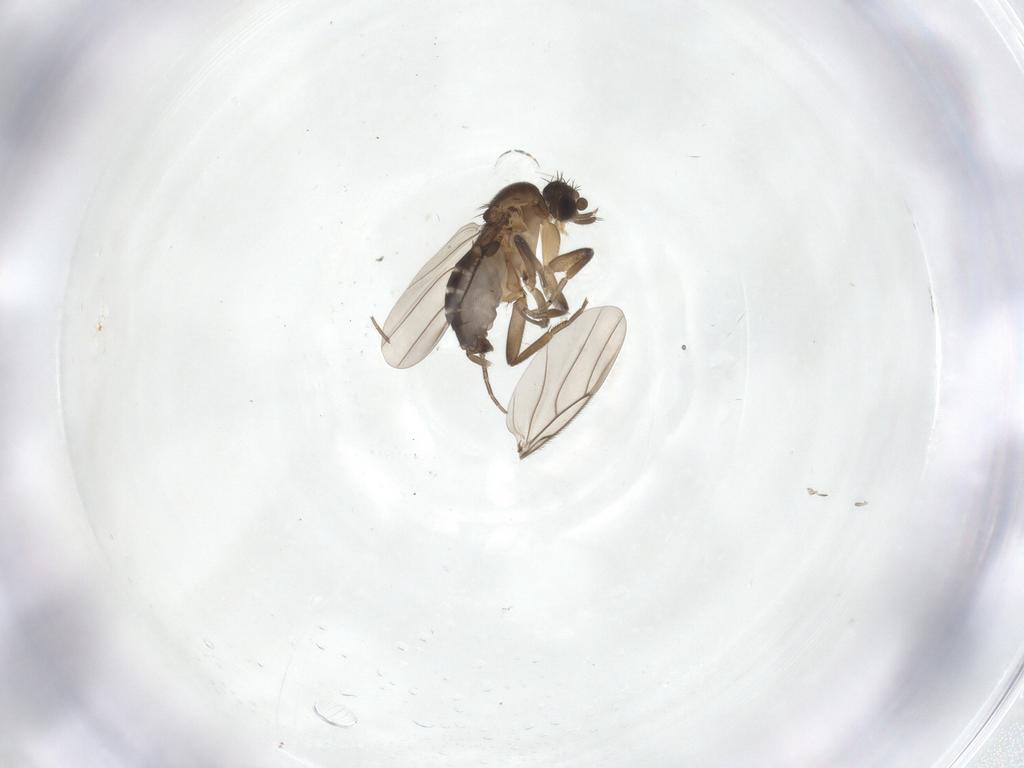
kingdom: Animalia
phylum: Arthropoda
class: Insecta
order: Diptera
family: Phoridae
